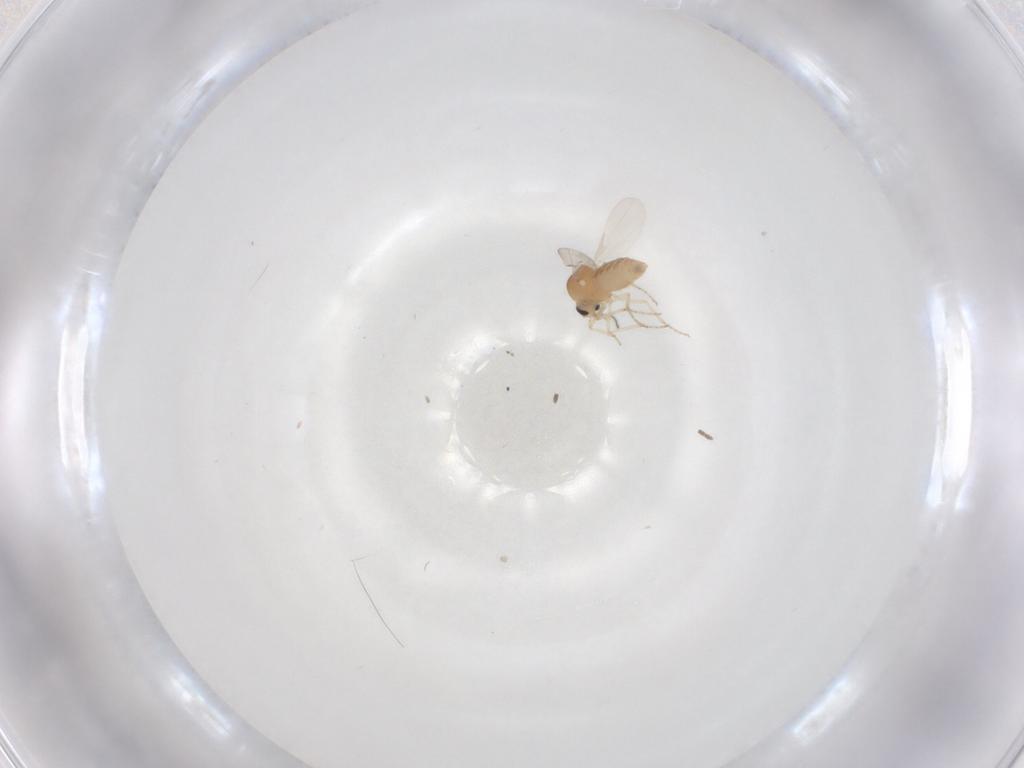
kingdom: Animalia
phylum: Arthropoda
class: Insecta
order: Diptera
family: Ceratopogonidae
